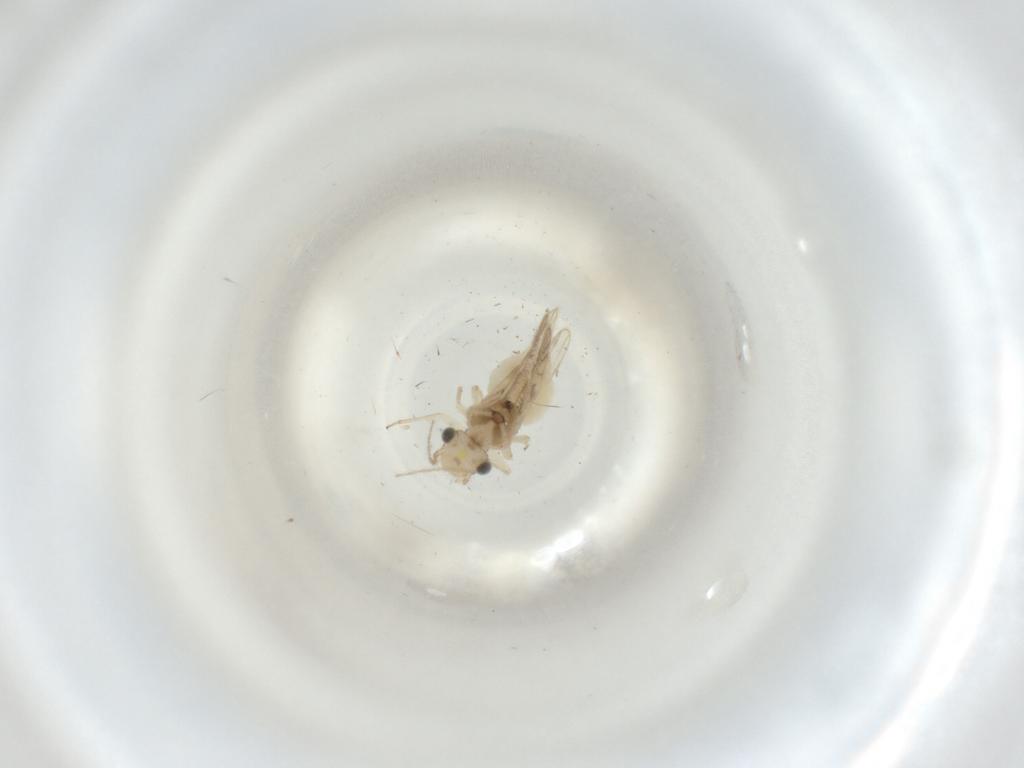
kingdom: Animalia
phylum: Arthropoda
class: Insecta
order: Psocodea
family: Caeciliusidae
